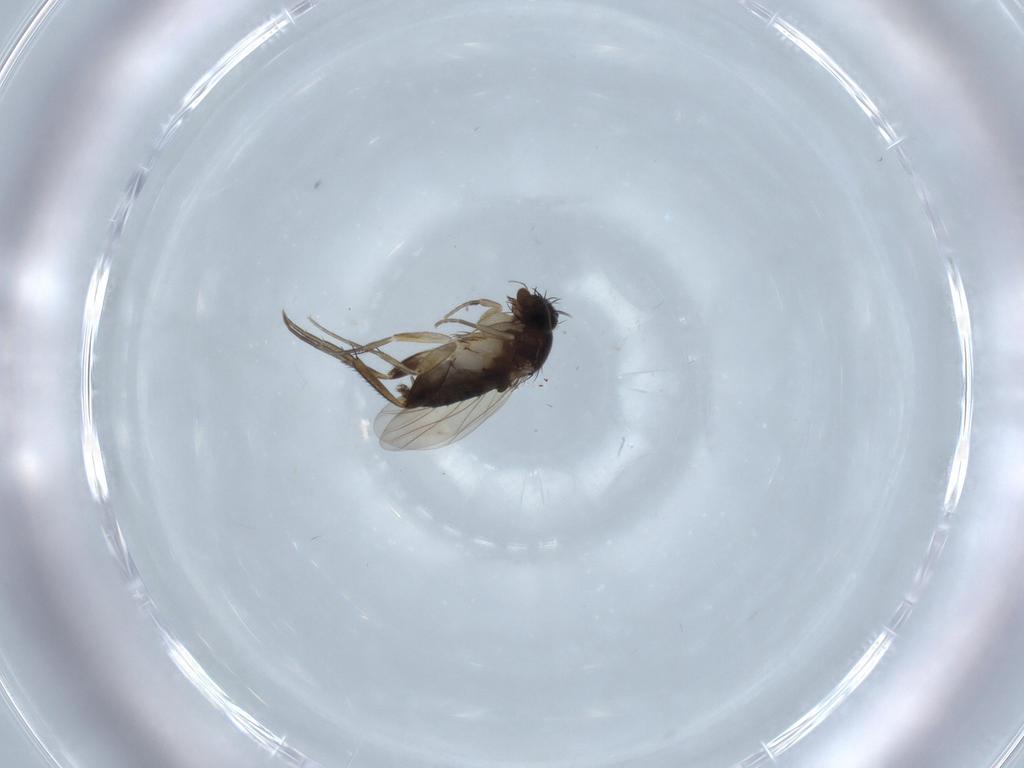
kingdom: Animalia
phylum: Arthropoda
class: Insecta
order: Diptera
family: Phoridae
